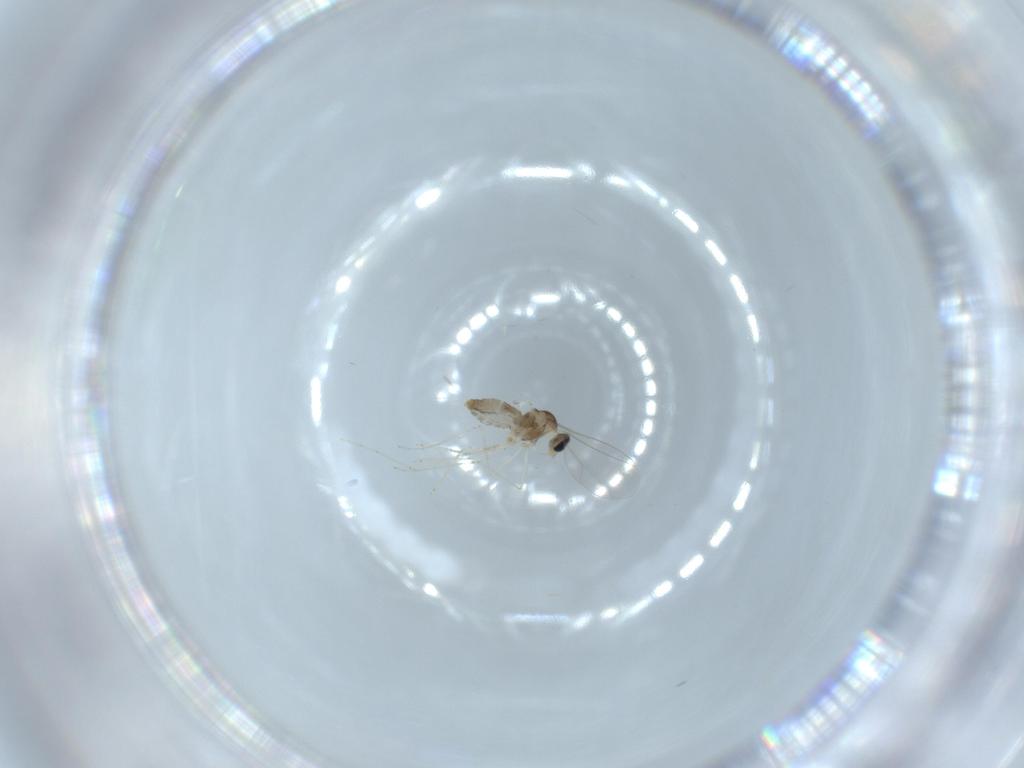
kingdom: Animalia
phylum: Arthropoda
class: Insecta
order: Diptera
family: Cecidomyiidae
